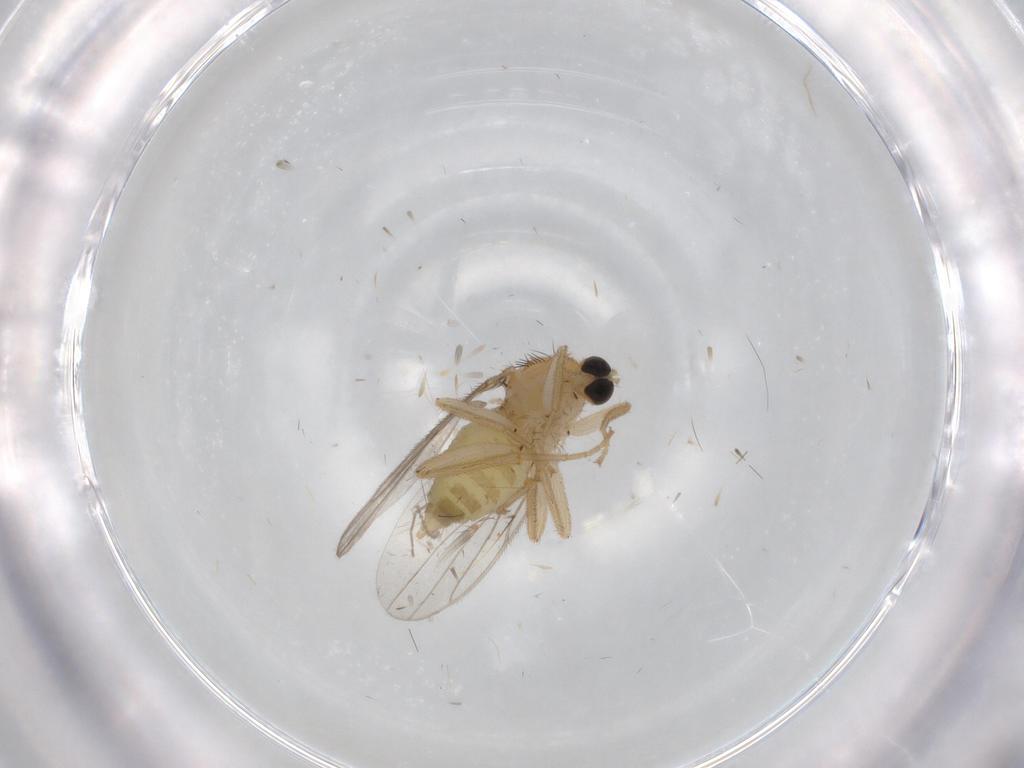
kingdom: Animalia
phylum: Arthropoda
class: Insecta
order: Diptera
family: Hybotidae
